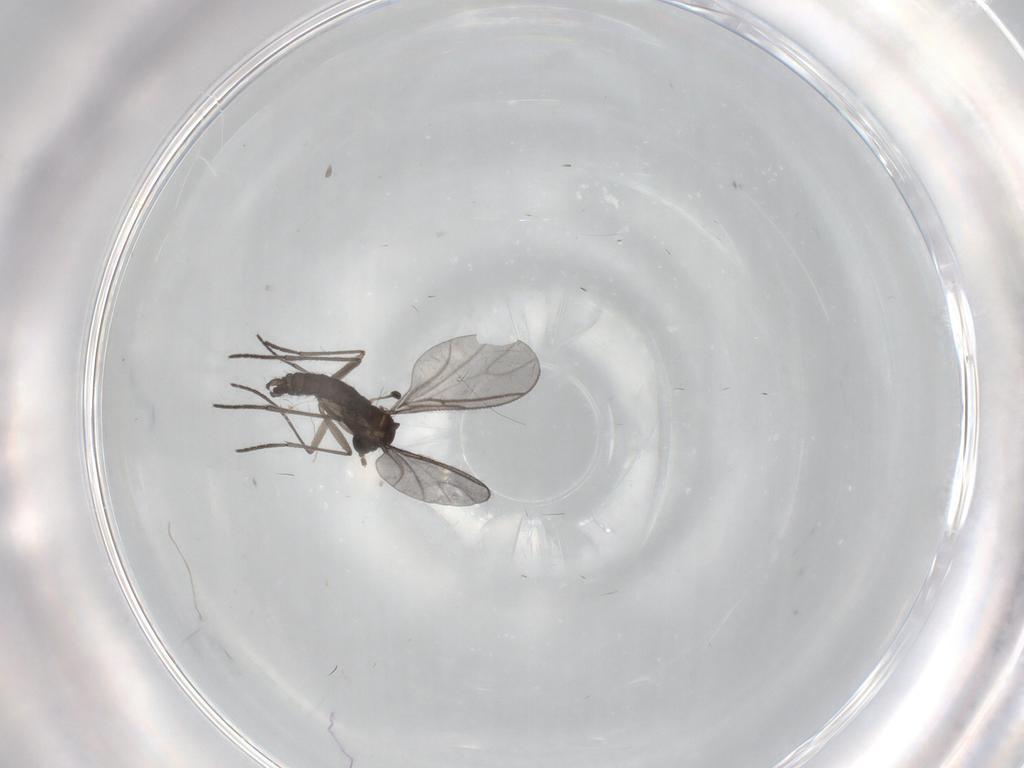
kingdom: Animalia
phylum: Arthropoda
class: Insecta
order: Diptera
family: Sciaridae
